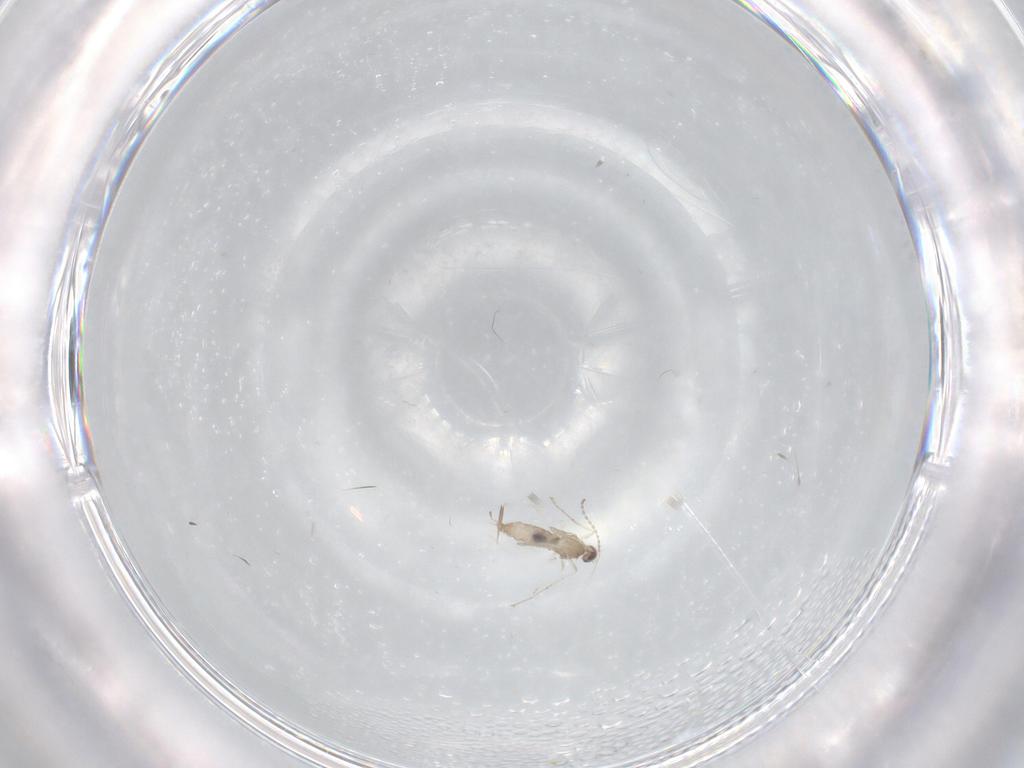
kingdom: Animalia
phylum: Arthropoda
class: Insecta
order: Diptera
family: Cecidomyiidae
